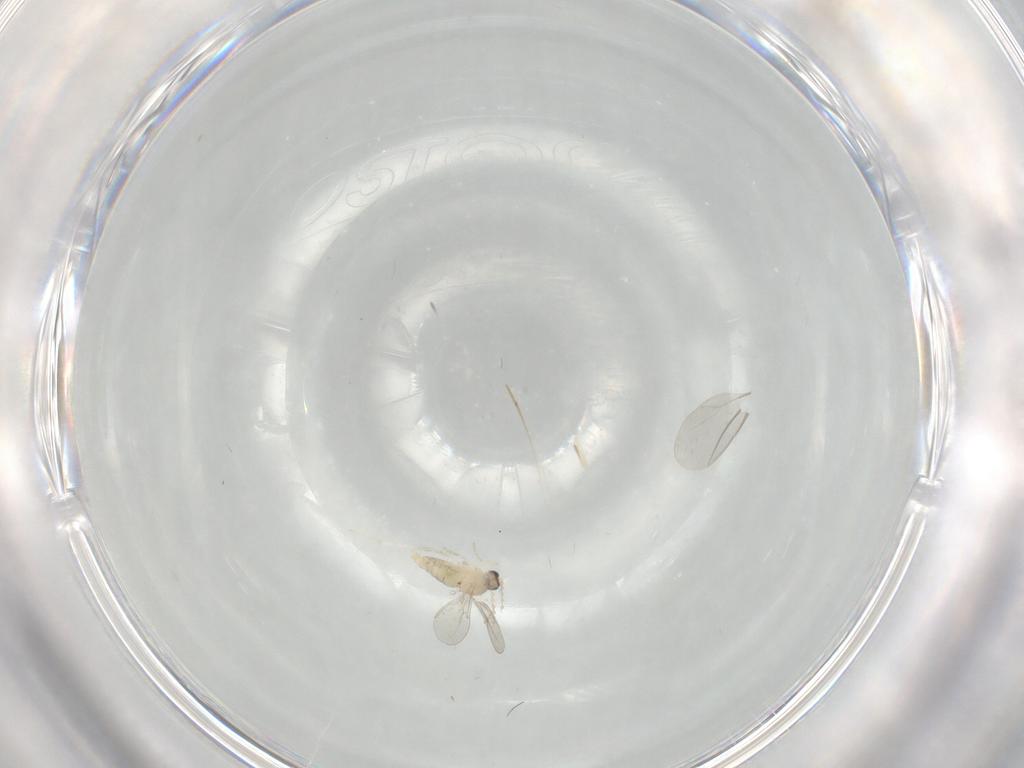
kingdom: Animalia
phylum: Arthropoda
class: Insecta
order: Diptera
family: Cecidomyiidae
